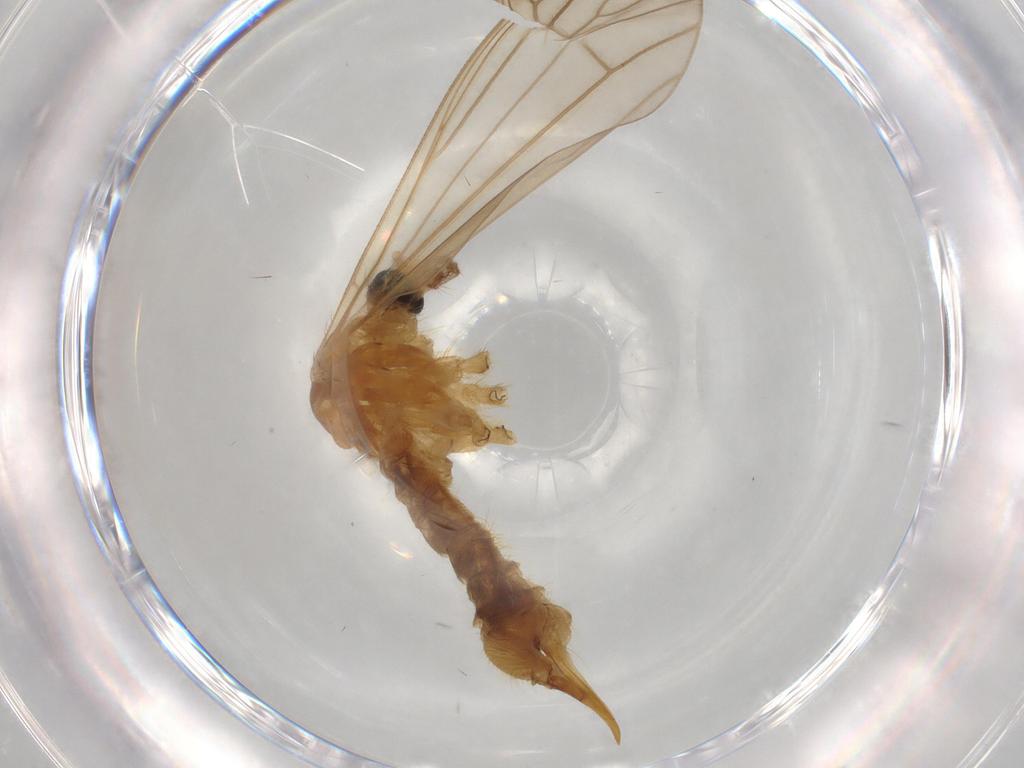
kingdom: Animalia
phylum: Arthropoda
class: Insecta
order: Diptera
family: Limoniidae
